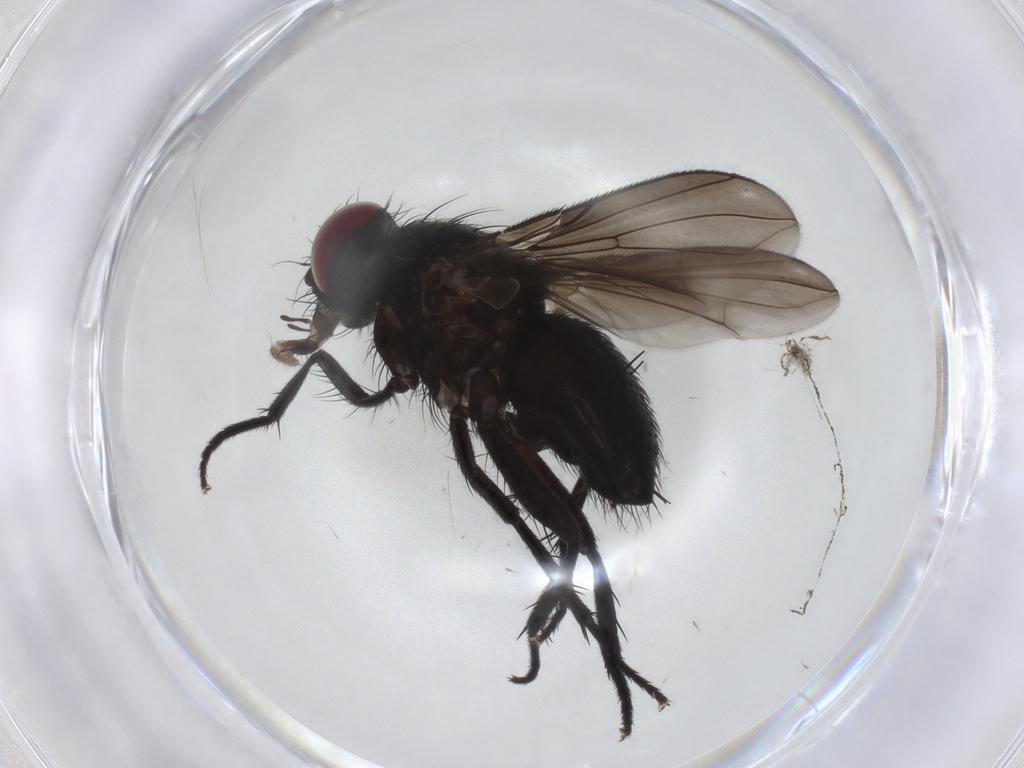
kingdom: Animalia
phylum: Arthropoda
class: Insecta
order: Diptera
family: Calliphoridae
